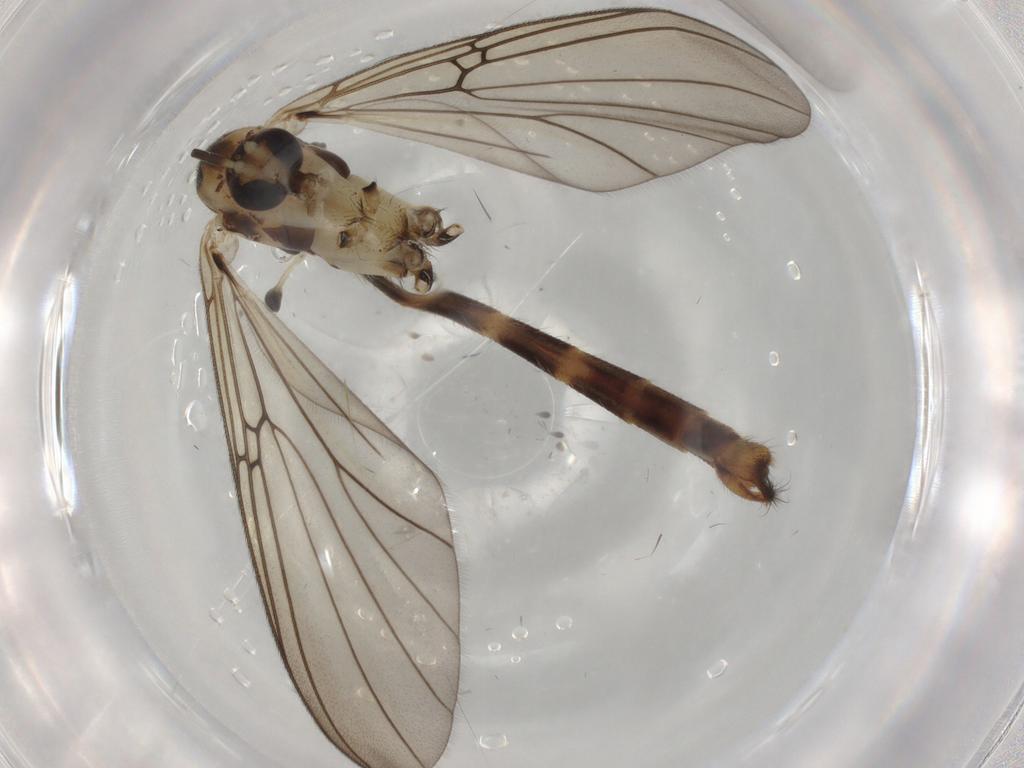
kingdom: Animalia
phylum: Arthropoda
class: Insecta
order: Diptera
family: Phoridae
